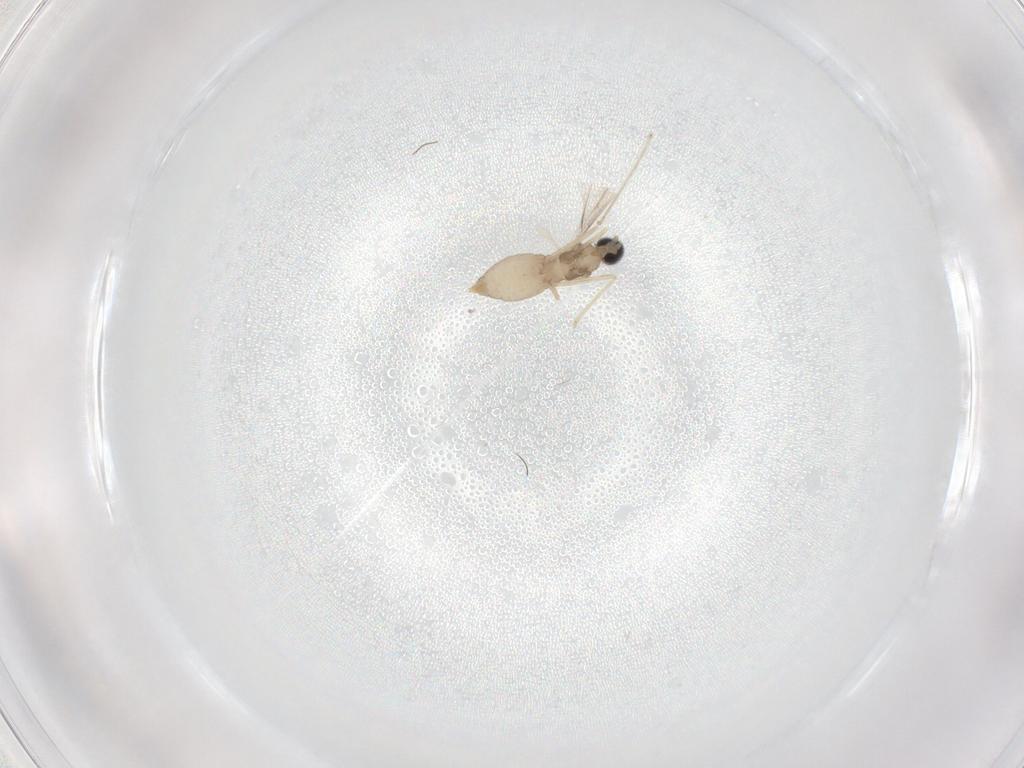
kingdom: Animalia
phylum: Arthropoda
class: Insecta
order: Diptera
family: Cecidomyiidae
